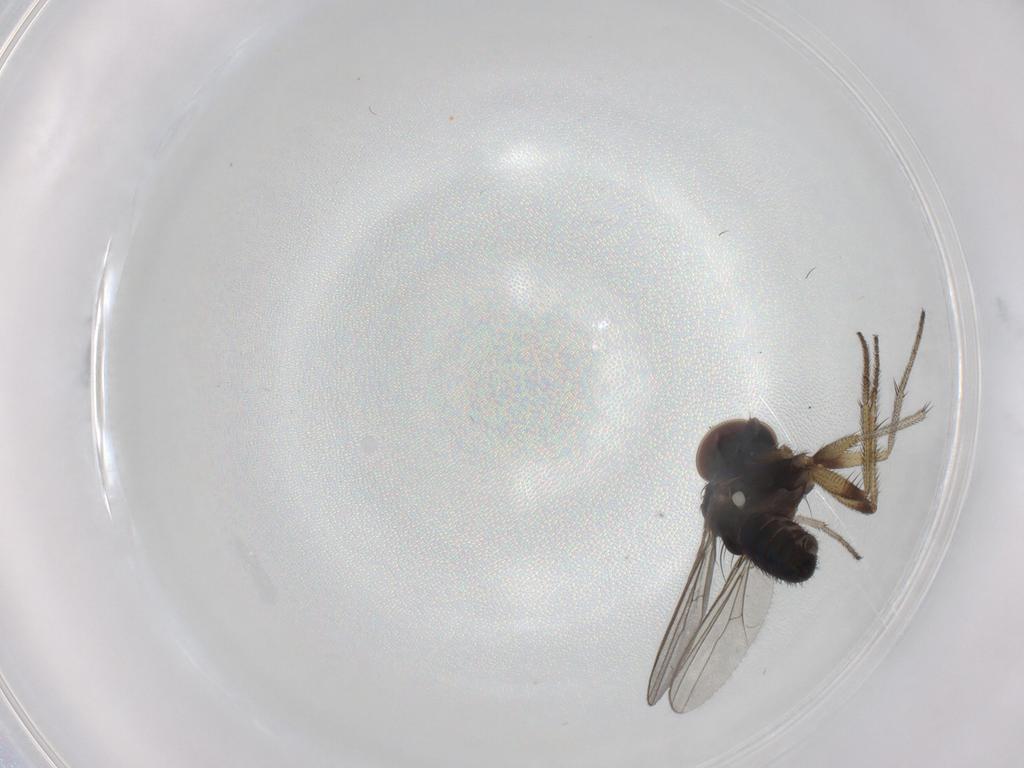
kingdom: Animalia
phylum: Arthropoda
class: Insecta
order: Diptera
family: Dolichopodidae
